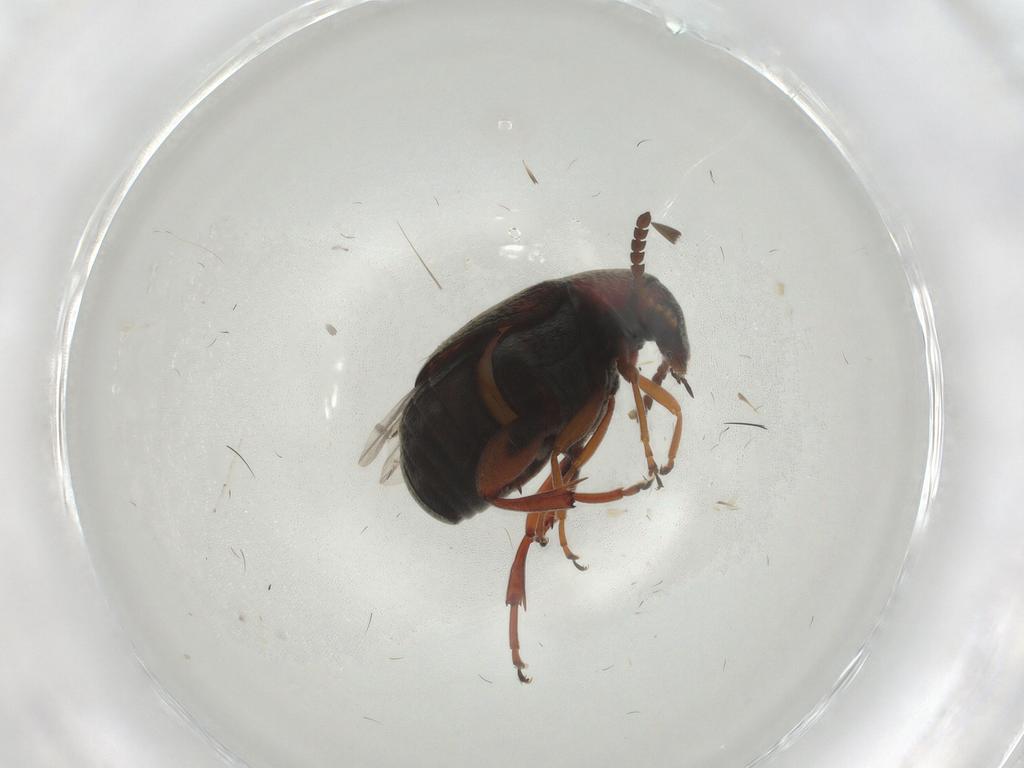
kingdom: Animalia
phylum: Arthropoda
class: Insecta
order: Coleoptera
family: Chrysomelidae
